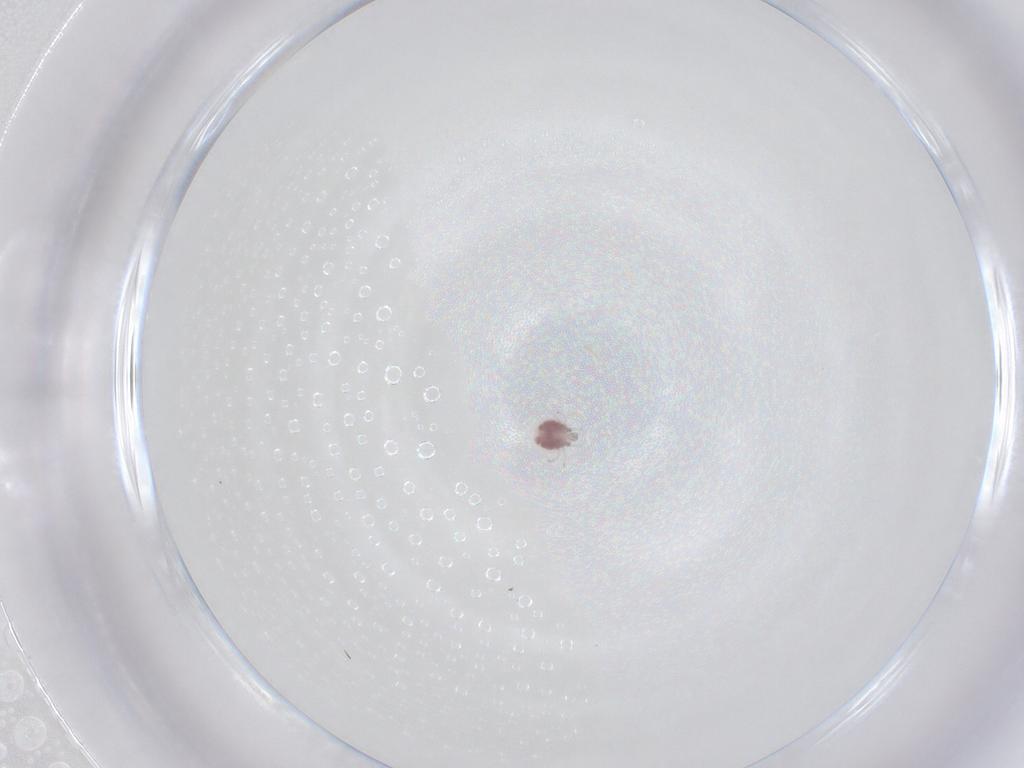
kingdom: Animalia
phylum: Arthropoda
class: Arachnida
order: Trombidiformes
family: Pionidae
